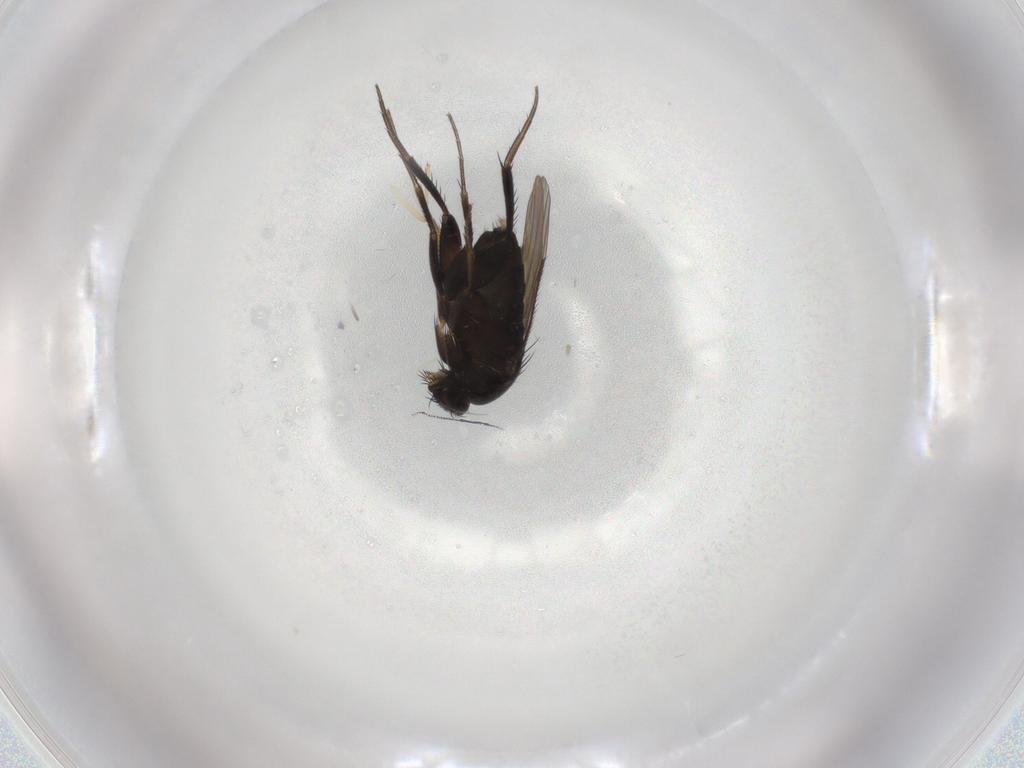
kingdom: Animalia
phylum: Arthropoda
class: Insecta
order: Diptera
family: Phoridae
